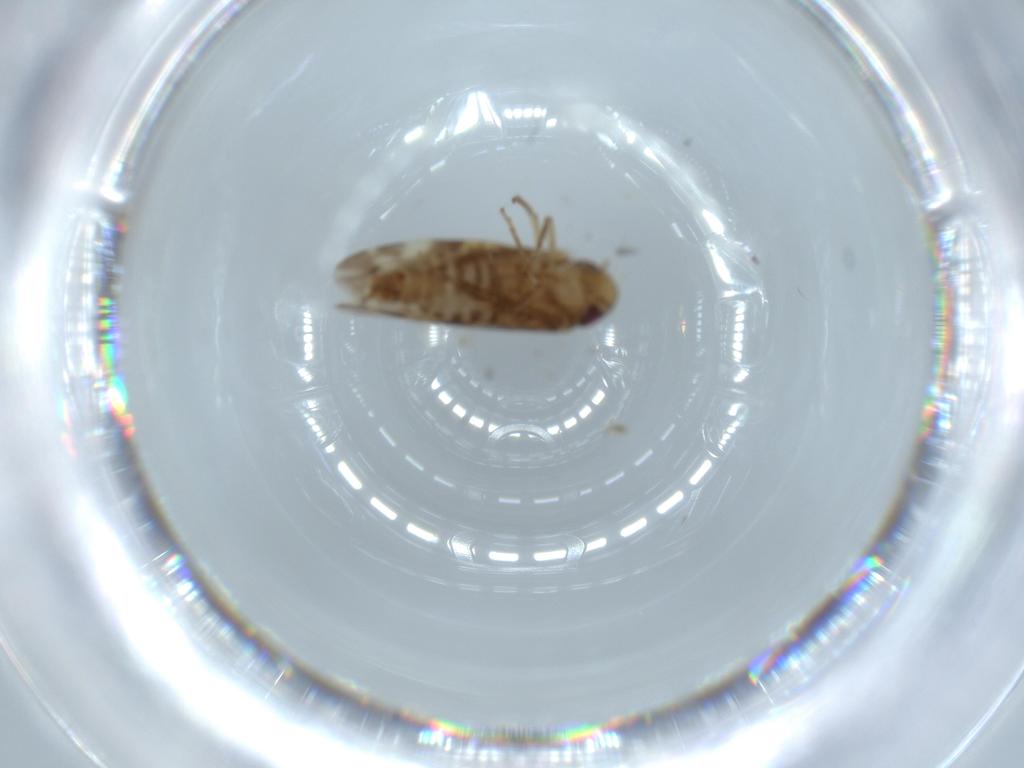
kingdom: Animalia
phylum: Arthropoda
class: Insecta
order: Hemiptera
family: Cicadellidae
